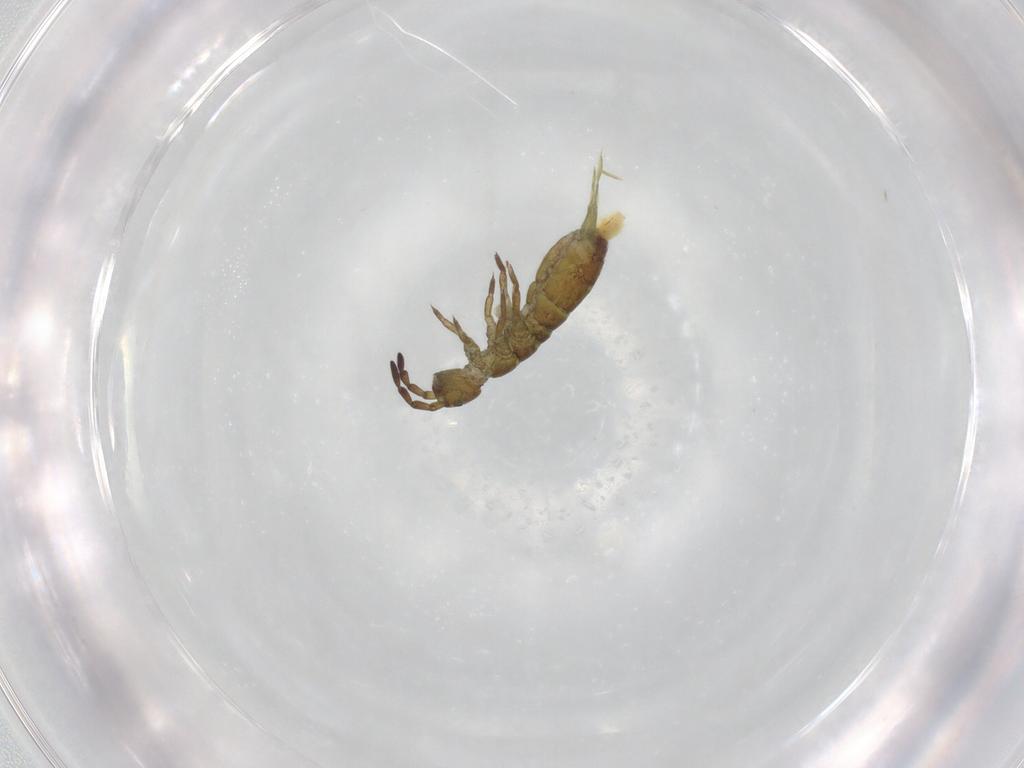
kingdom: Animalia
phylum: Arthropoda
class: Collembola
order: Entomobryomorpha
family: Isotomidae
